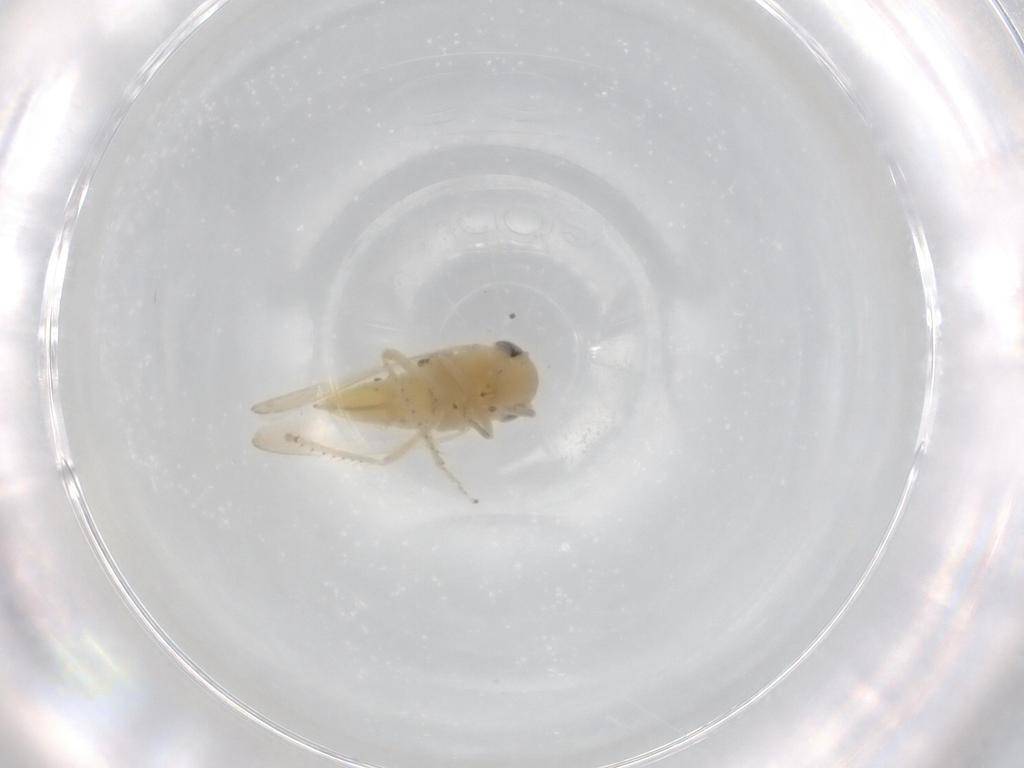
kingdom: Animalia
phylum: Arthropoda
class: Insecta
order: Hemiptera
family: Cicadellidae
